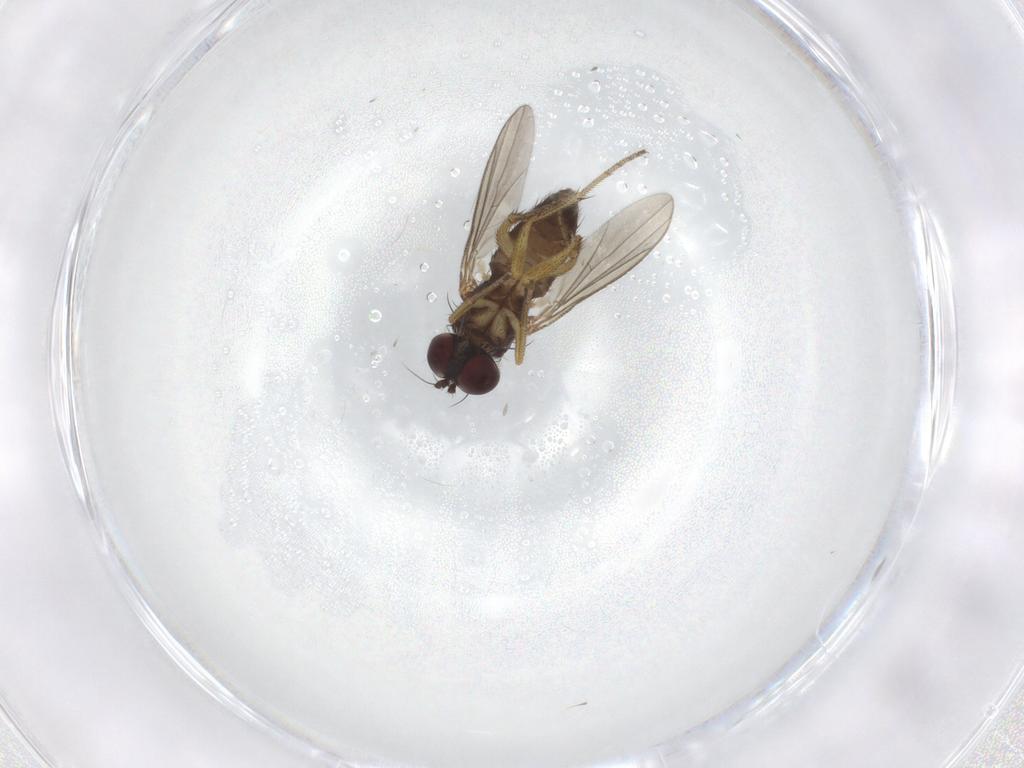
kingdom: Animalia
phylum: Arthropoda
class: Insecta
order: Diptera
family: Dolichopodidae
